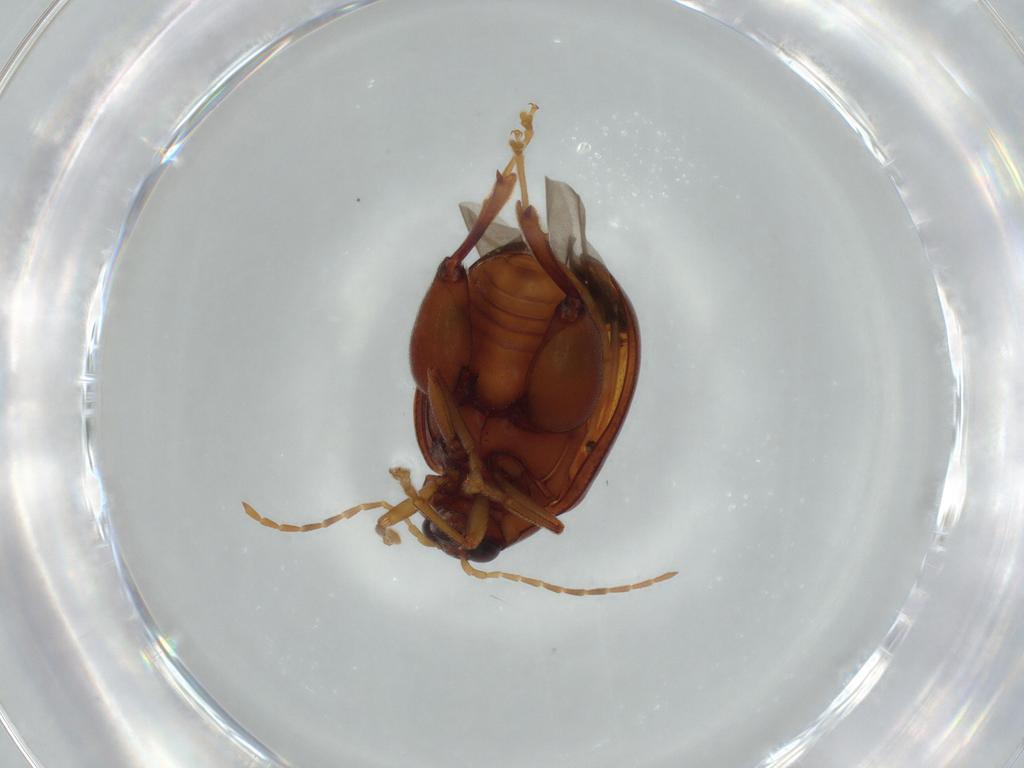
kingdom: Animalia
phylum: Arthropoda
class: Insecta
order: Coleoptera
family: Chrysomelidae
